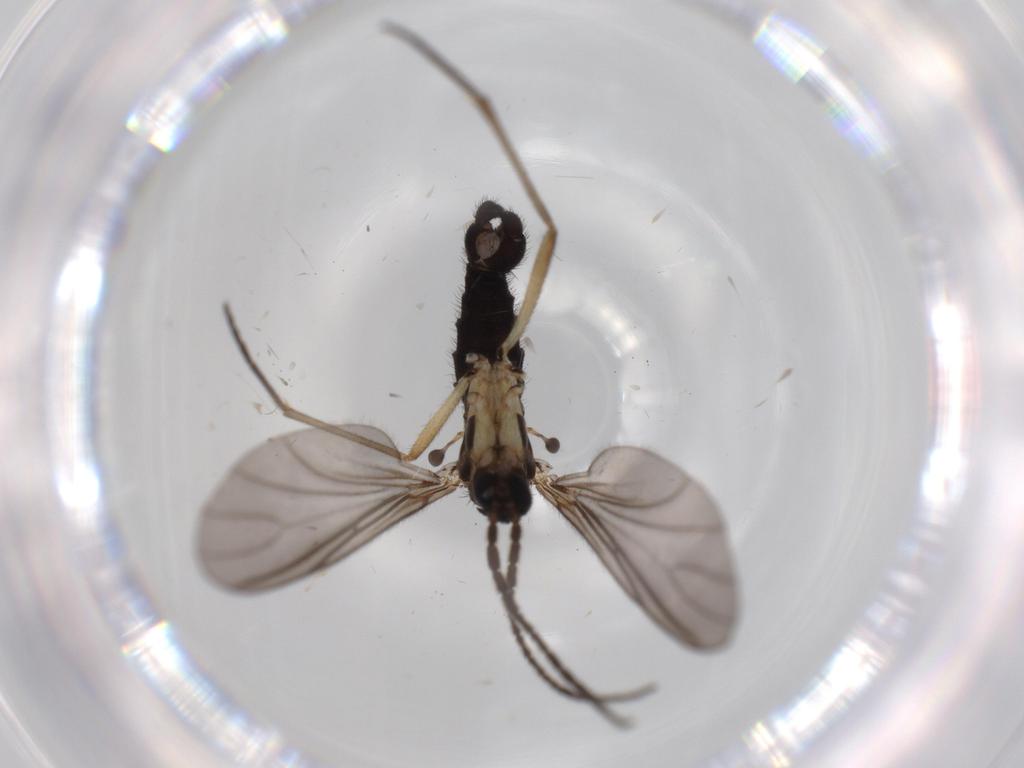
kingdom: Animalia
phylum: Arthropoda
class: Insecta
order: Diptera
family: Sciaridae
